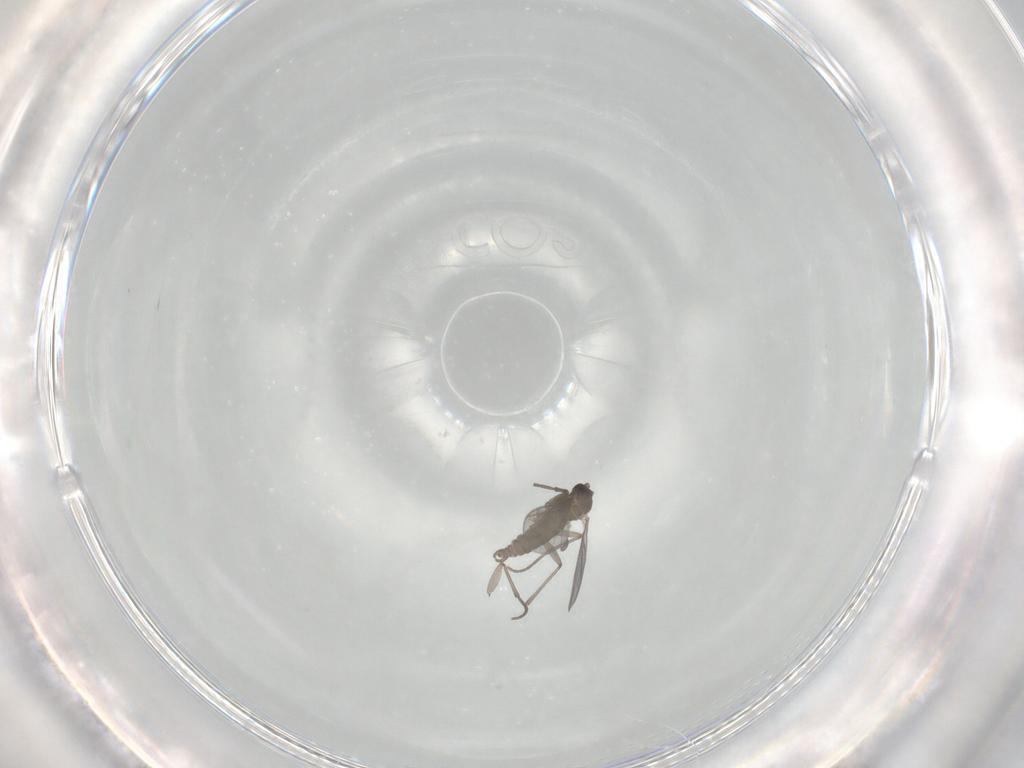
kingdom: Animalia
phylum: Arthropoda
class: Insecta
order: Diptera
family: Sciaridae
